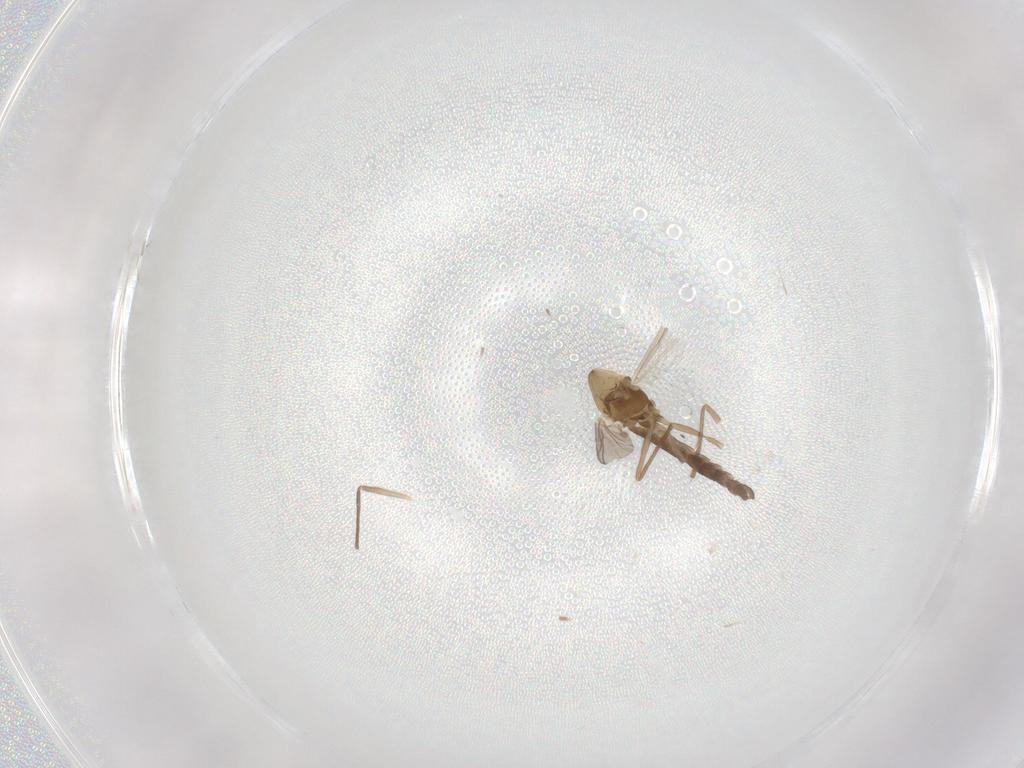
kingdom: Animalia
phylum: Arthropoda
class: Insecta
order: Diptera
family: Chironomidae
